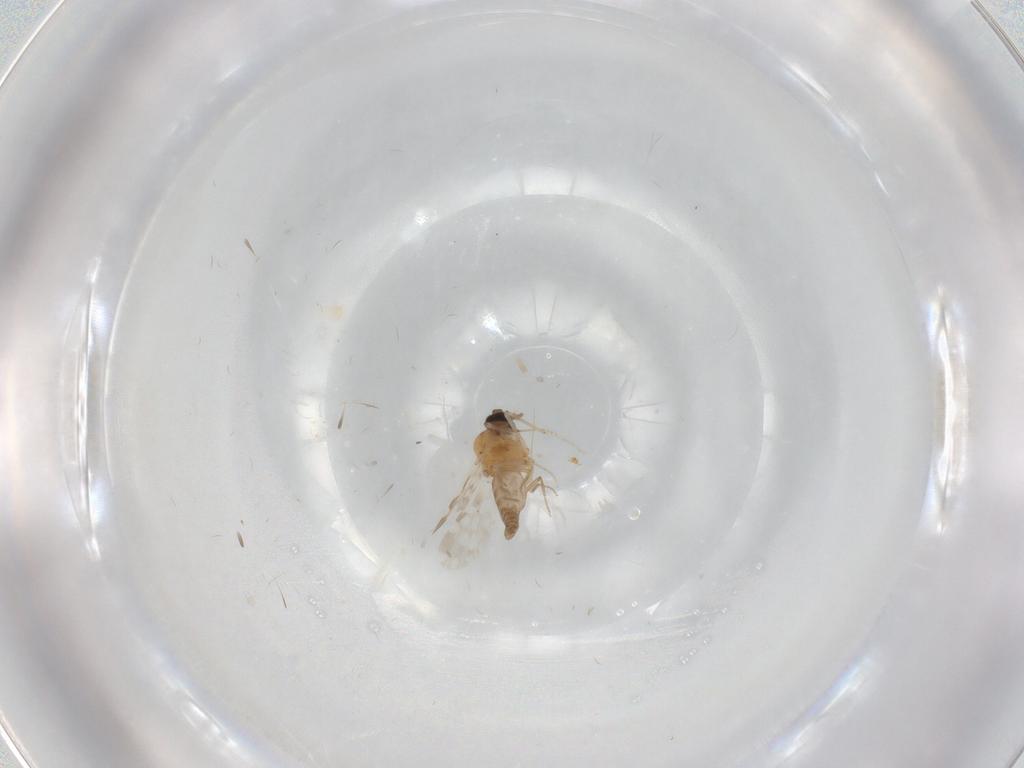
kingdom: Animalia
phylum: Arthropoda
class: Insecta
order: Diptera
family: Ceratopogonidae
